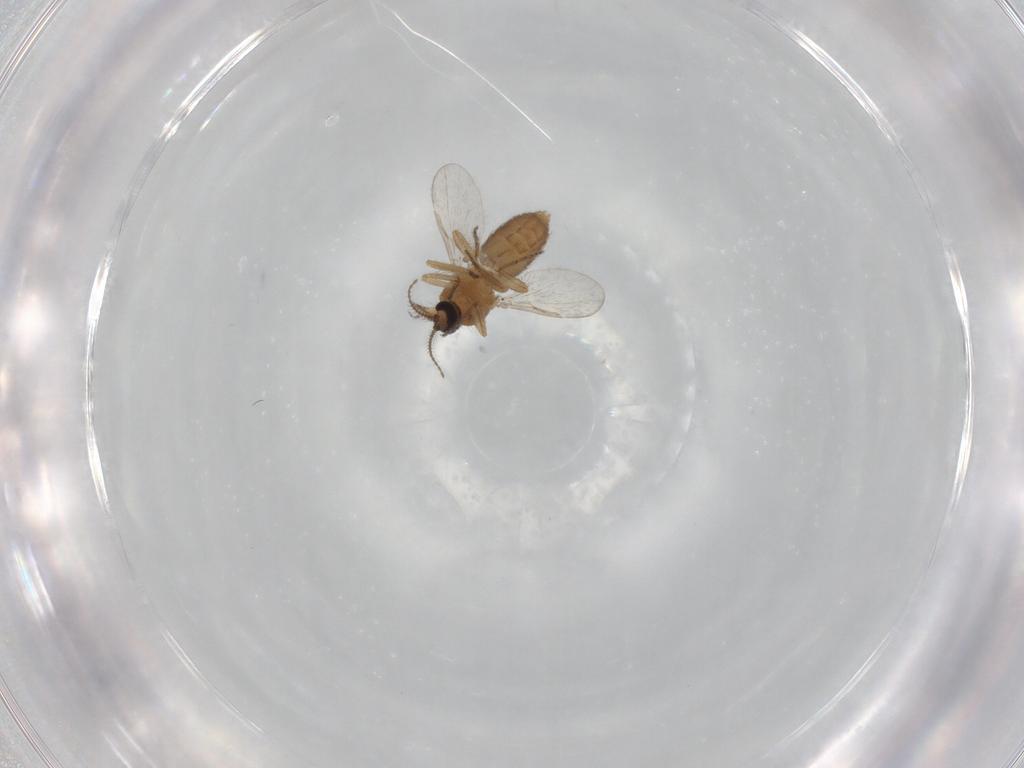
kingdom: Animalia
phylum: Arthropoda
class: Insecta
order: Diptera
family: Ceratopogonidae
